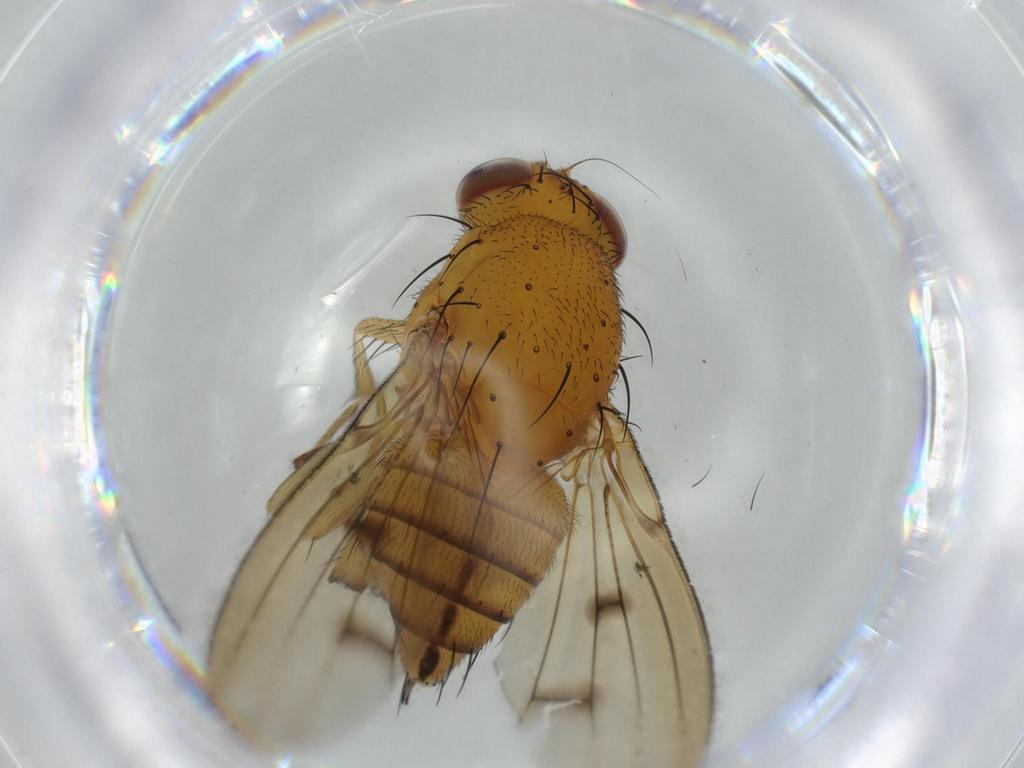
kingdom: Animalia
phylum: Arthropoda
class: Insecta
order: Diptera
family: Lauxaniidae
